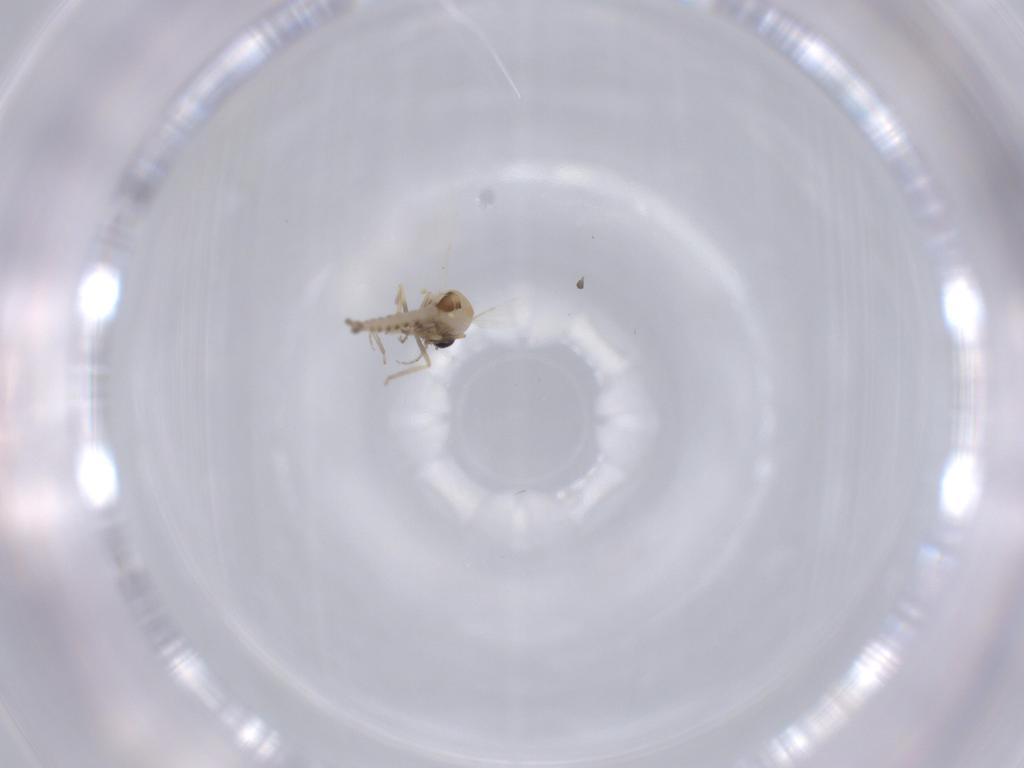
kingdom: Animalia
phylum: Arthropoda
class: Insecta
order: Diptera
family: Ceratopogonidae
